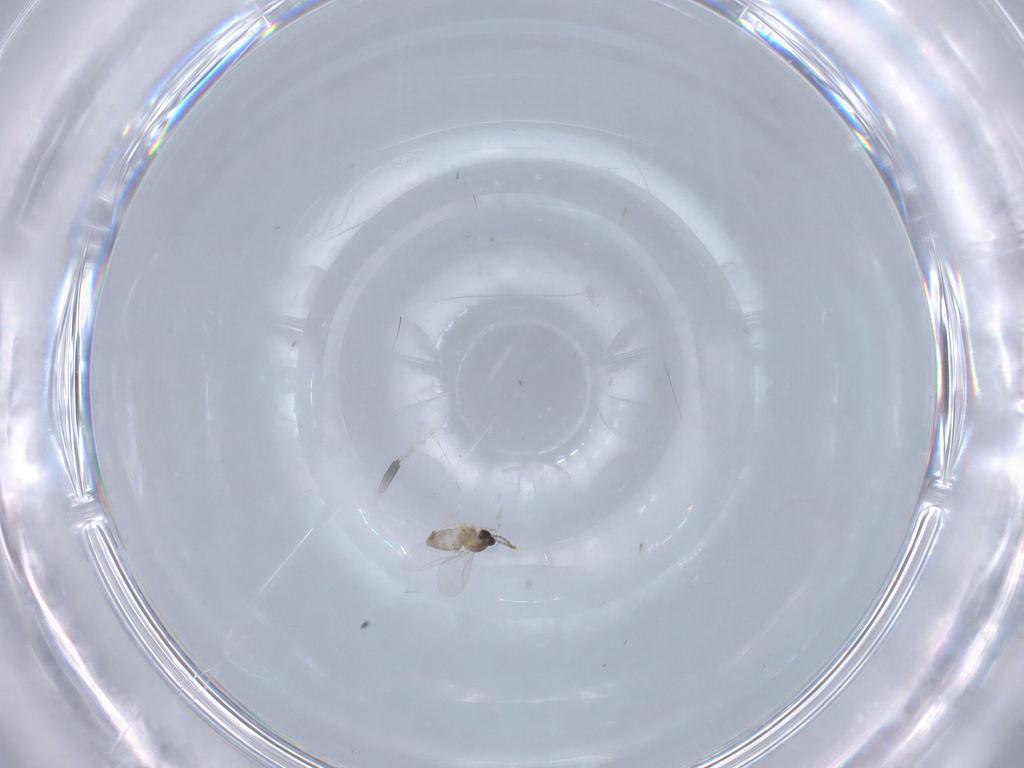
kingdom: Animalia
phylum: Arthropoda
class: Insecta
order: Diptera
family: Cecidomyiidae
